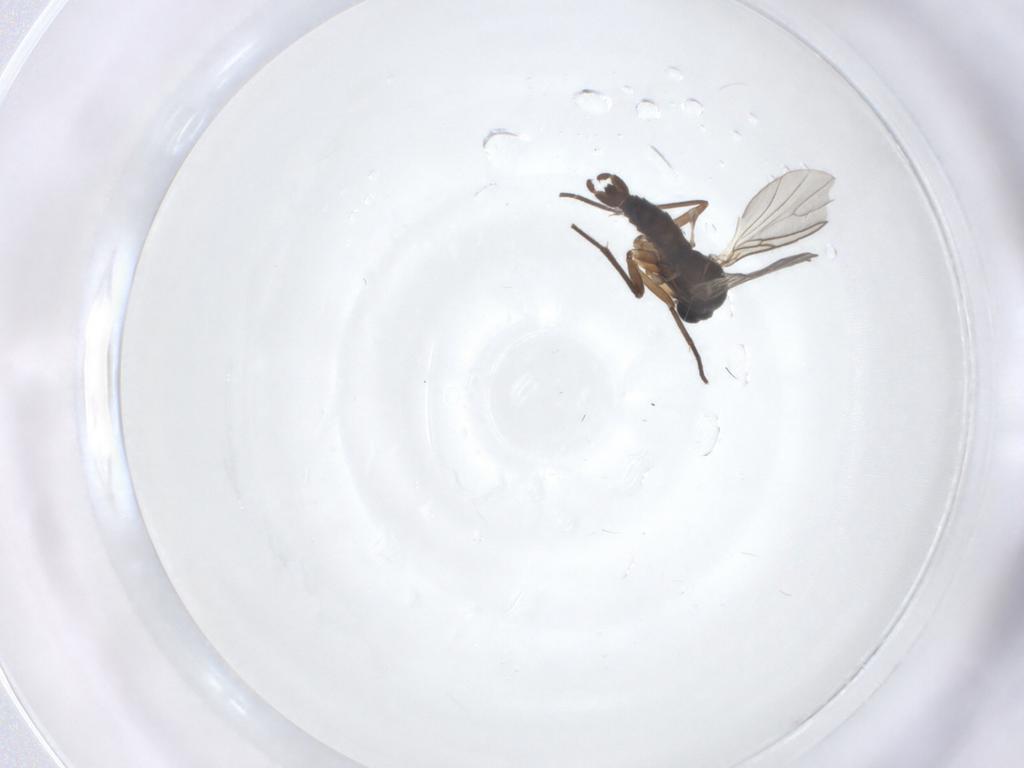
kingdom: Animalia
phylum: Arthropoda
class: Insecta
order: Diptera
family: Sciaridae
